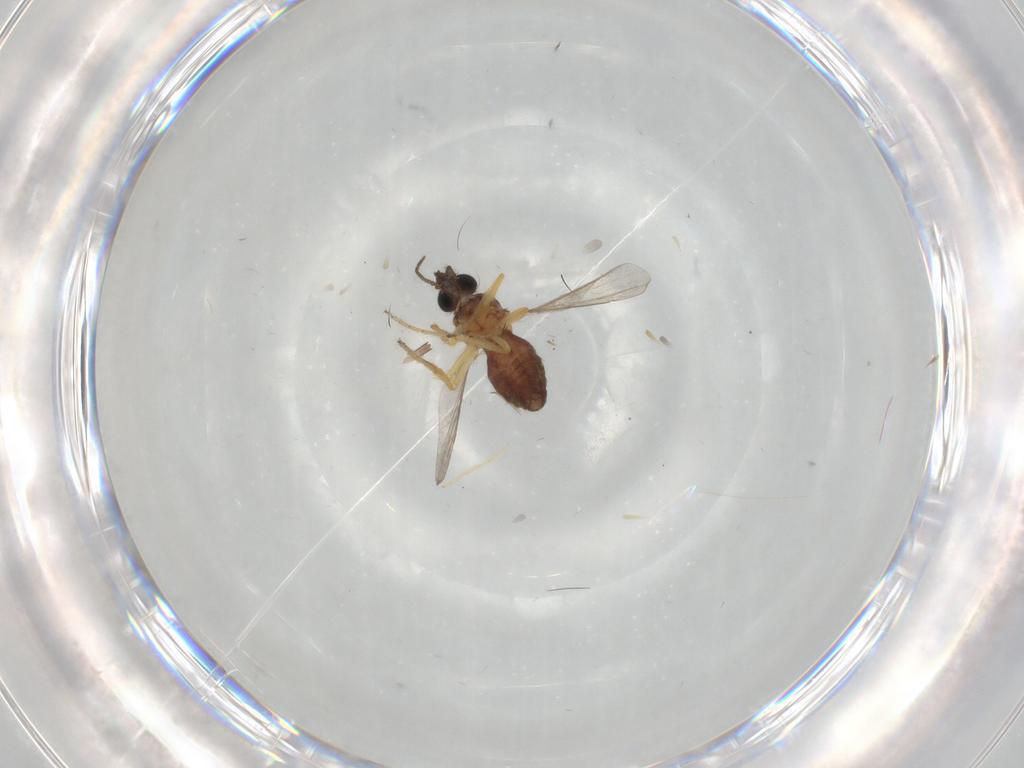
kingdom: Animalia
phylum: Arthropoda
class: Insecta
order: Diptera
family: Ceratopogonidae
